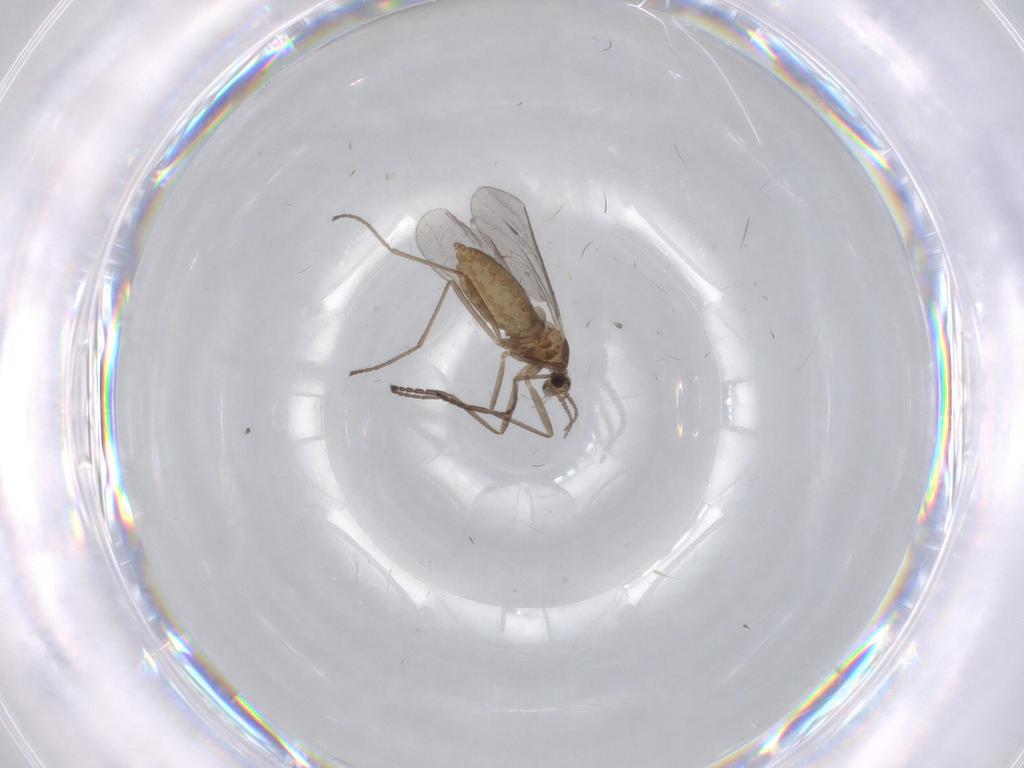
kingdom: Animalia
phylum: Arthropoda
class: Insecta
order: Diptera
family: Cecidomyiidae
